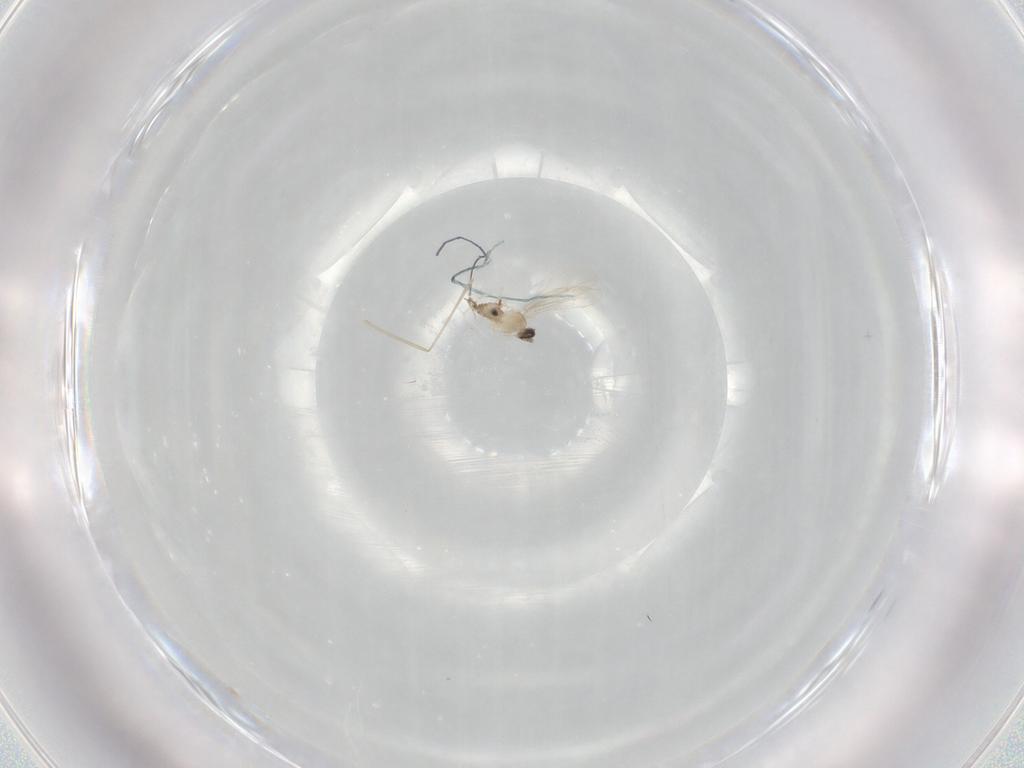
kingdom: Animalia
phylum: Arthropoda
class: Insecta
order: Diptera
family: Cecidomyiidae
